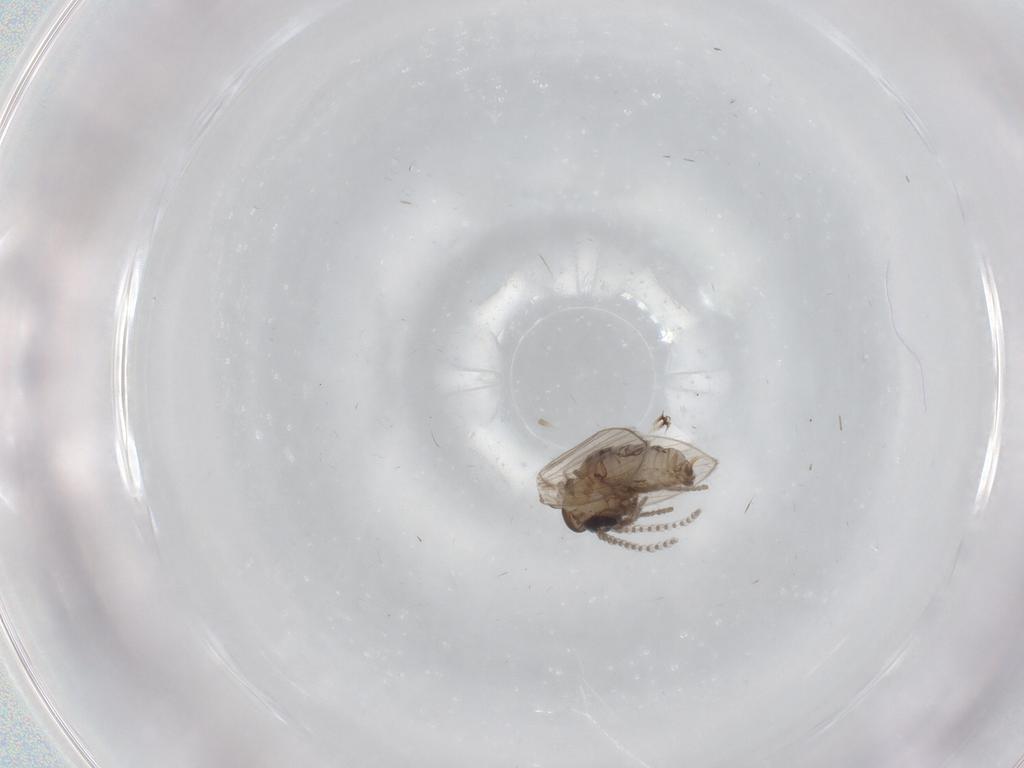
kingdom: Animalia
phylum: Arthropoda
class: Insecta
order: Diptera
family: Psychodidae
